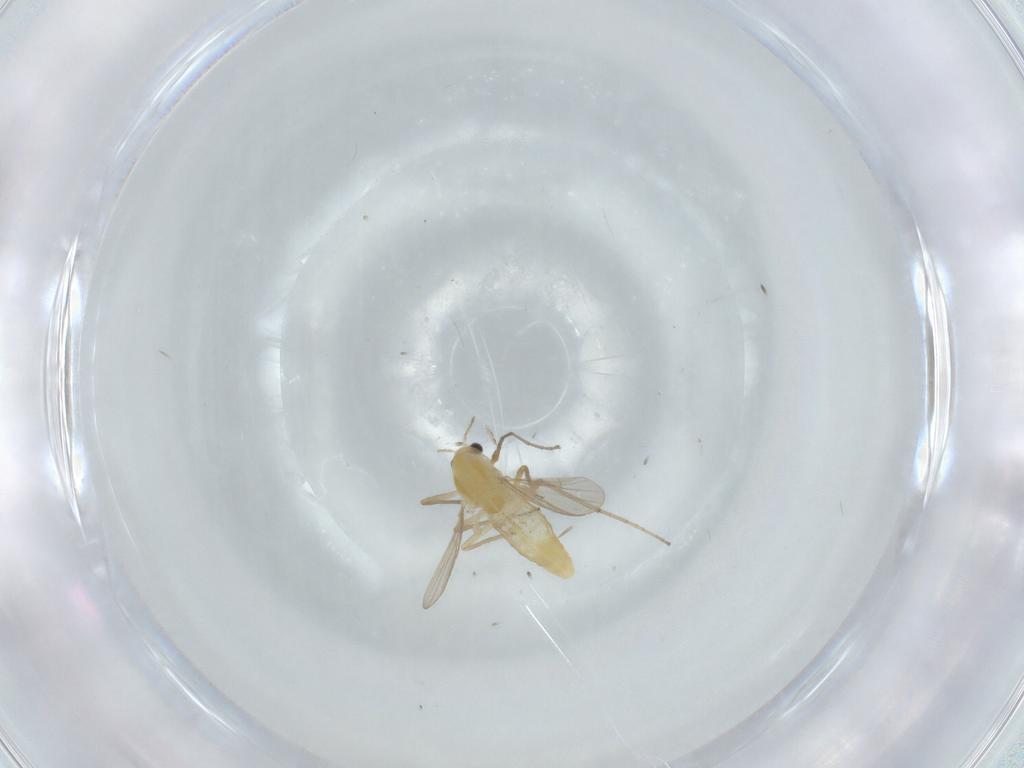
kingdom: Animalia
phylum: Arthropoda
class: Insecta
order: Diptera
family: Chironomidae
